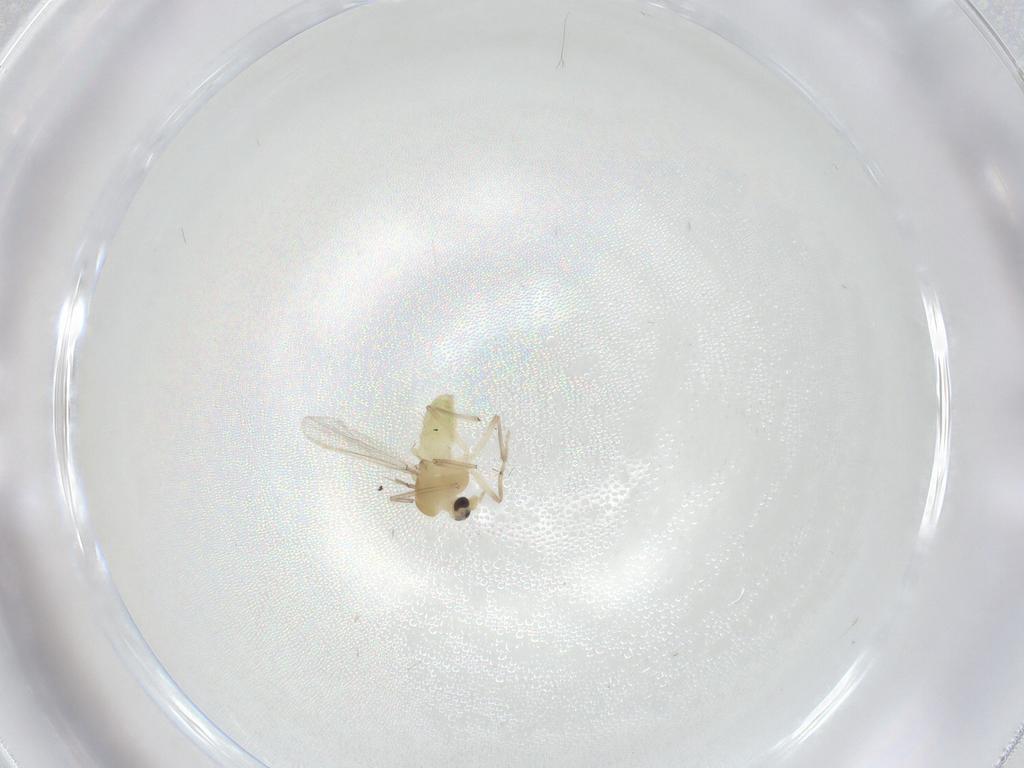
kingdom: Animalia
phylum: Arthropoda
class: Insecta
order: Diptera
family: Chironomidae
